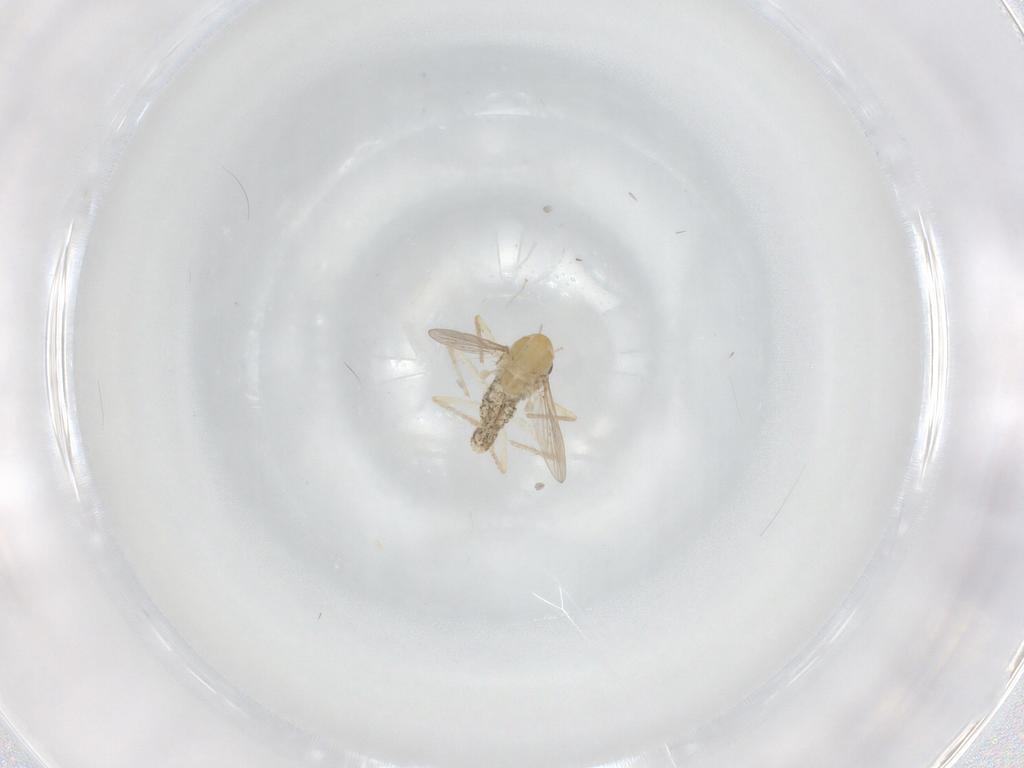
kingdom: Animalia
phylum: Arthropoda
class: Insecta
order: Diptera
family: Chironomidae
